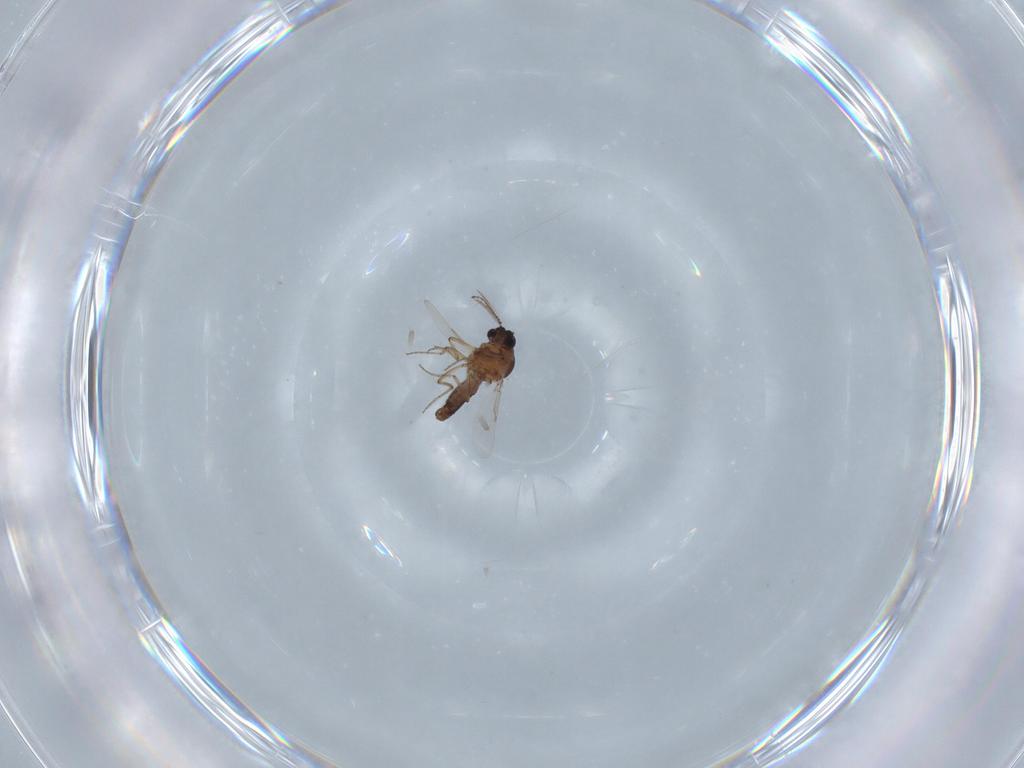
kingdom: Animalia
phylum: Arthropoda
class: Insecta
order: Diptera
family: Ceratopogonidae
